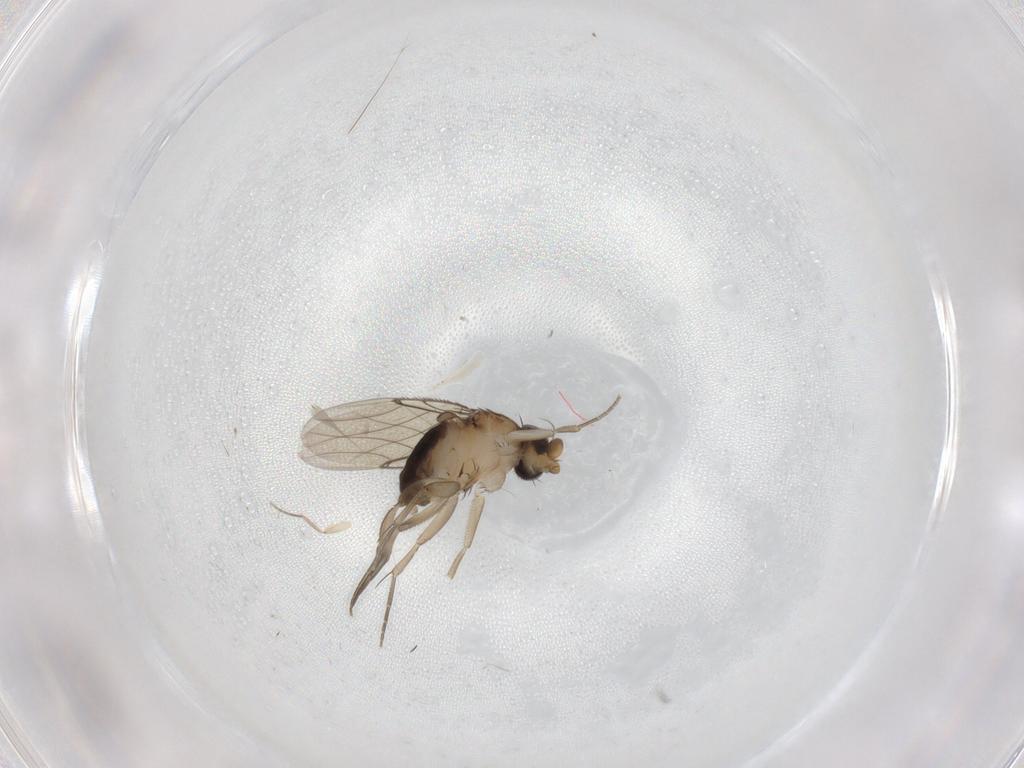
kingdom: Animalia
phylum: Arthropoda
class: Insecta
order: Diptera
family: Phoridae
